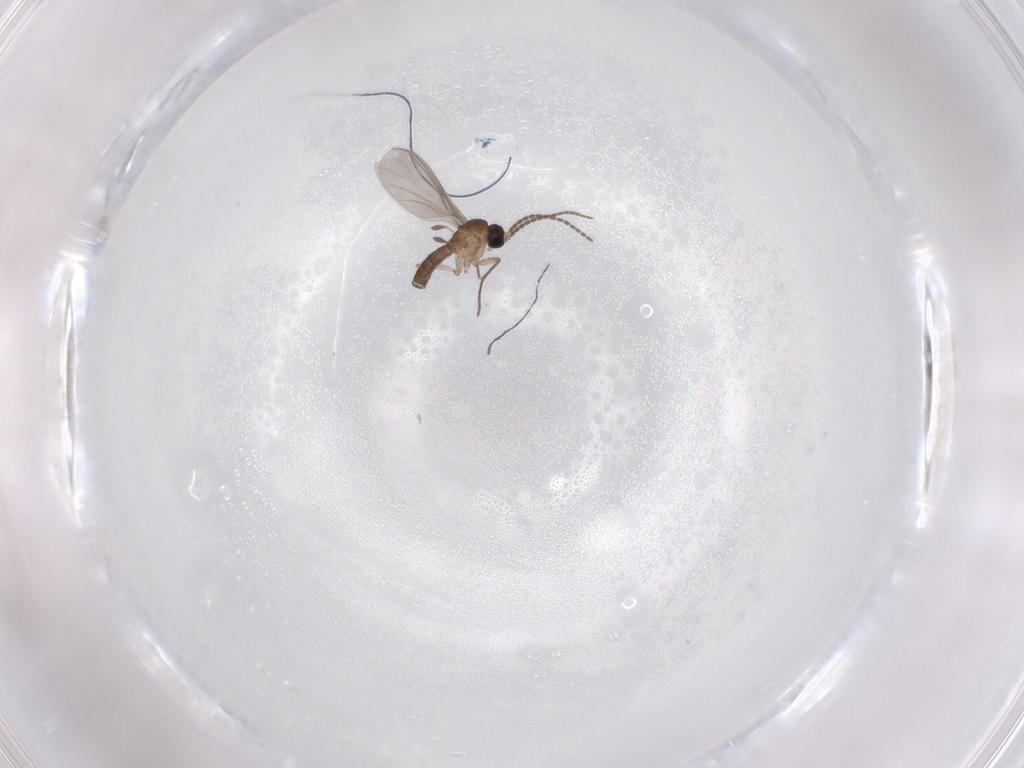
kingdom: Animalia
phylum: Arthropoda
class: Insecta
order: Diptera
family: Sciaridae
